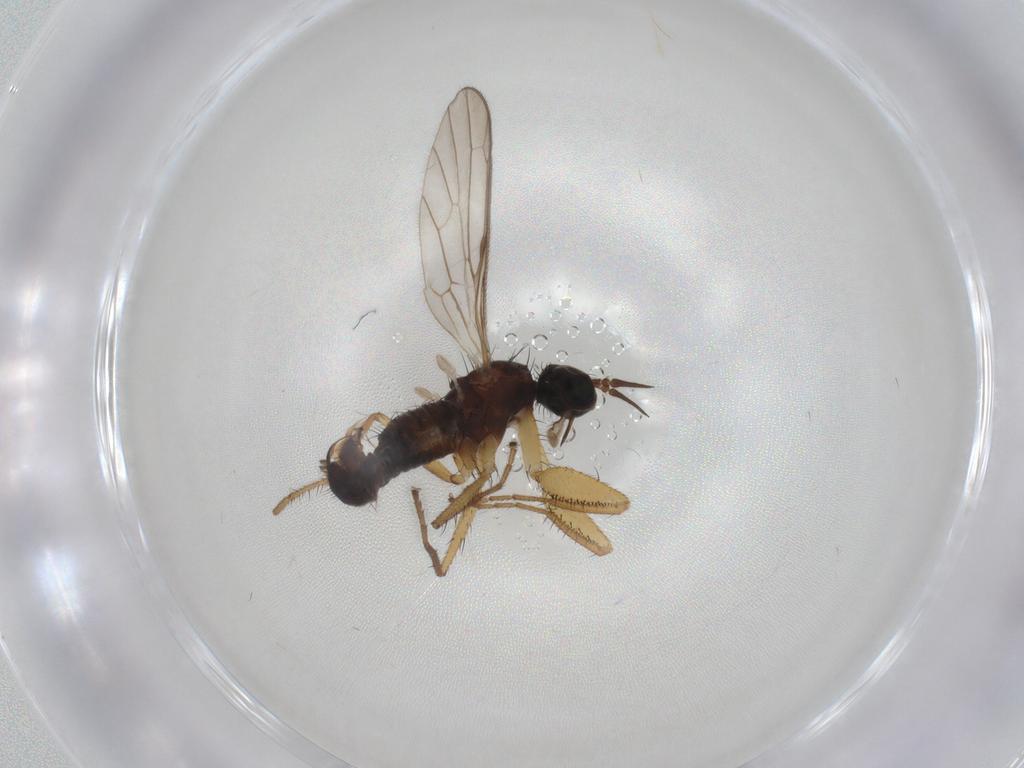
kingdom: Animalia
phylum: Arthropoda
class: Insecta
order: Diptera
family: Empididae
